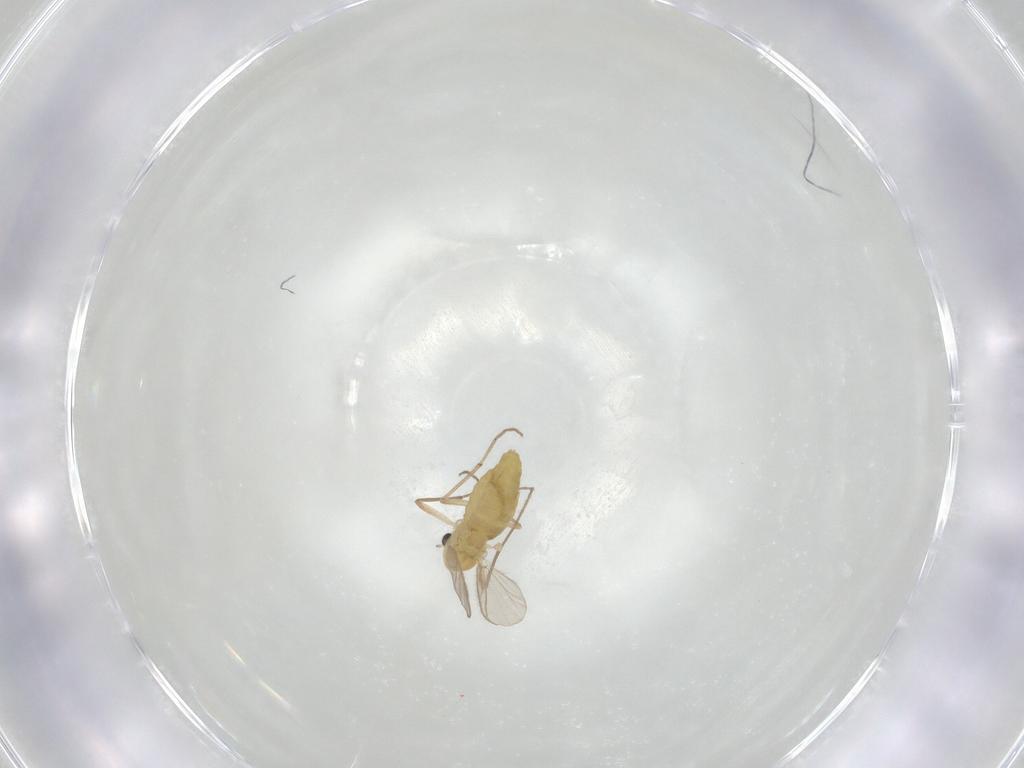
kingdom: Animalia
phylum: Arthropoda
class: Insecta
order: Diptera
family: Chironomidae
